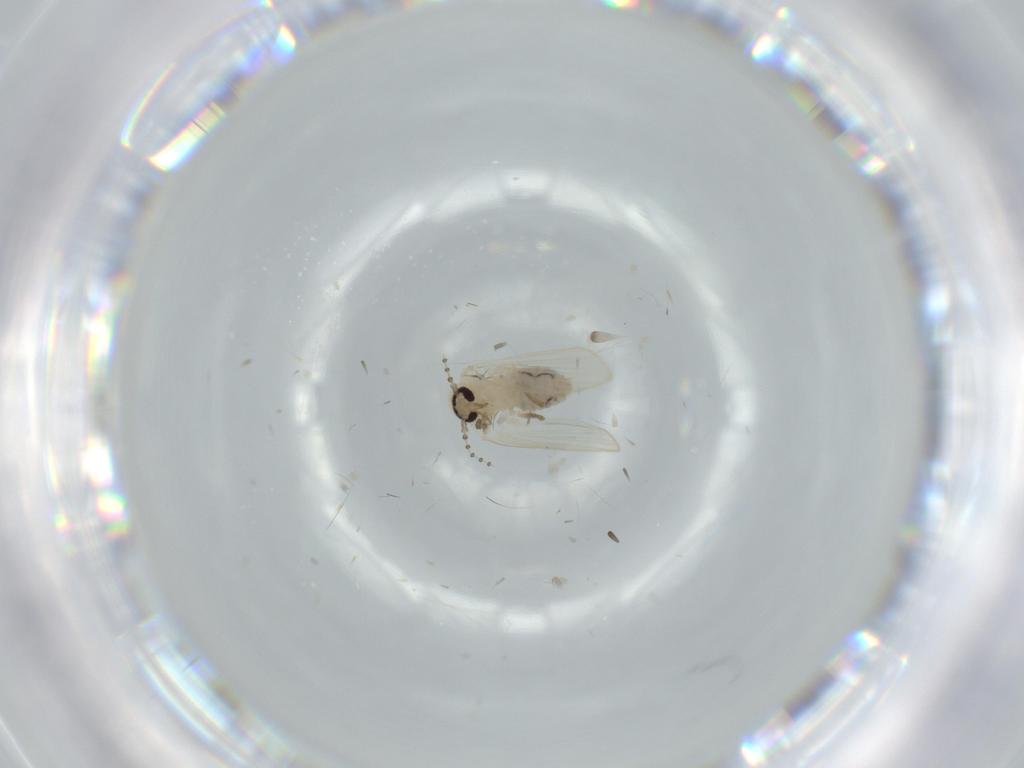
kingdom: Animalia
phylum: Arthropoda
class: Insecta
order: Diptera
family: Psychodidae
